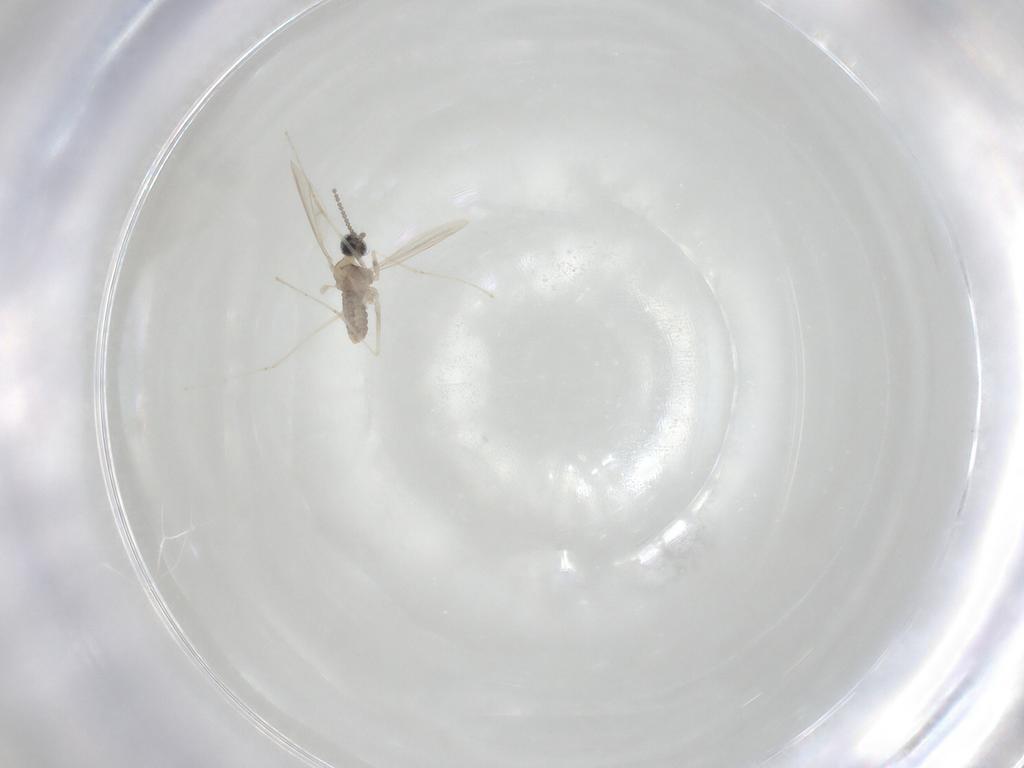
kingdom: Animalia
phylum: Arthropoda
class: Insecta
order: Diptera
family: Cecidomyiidae
